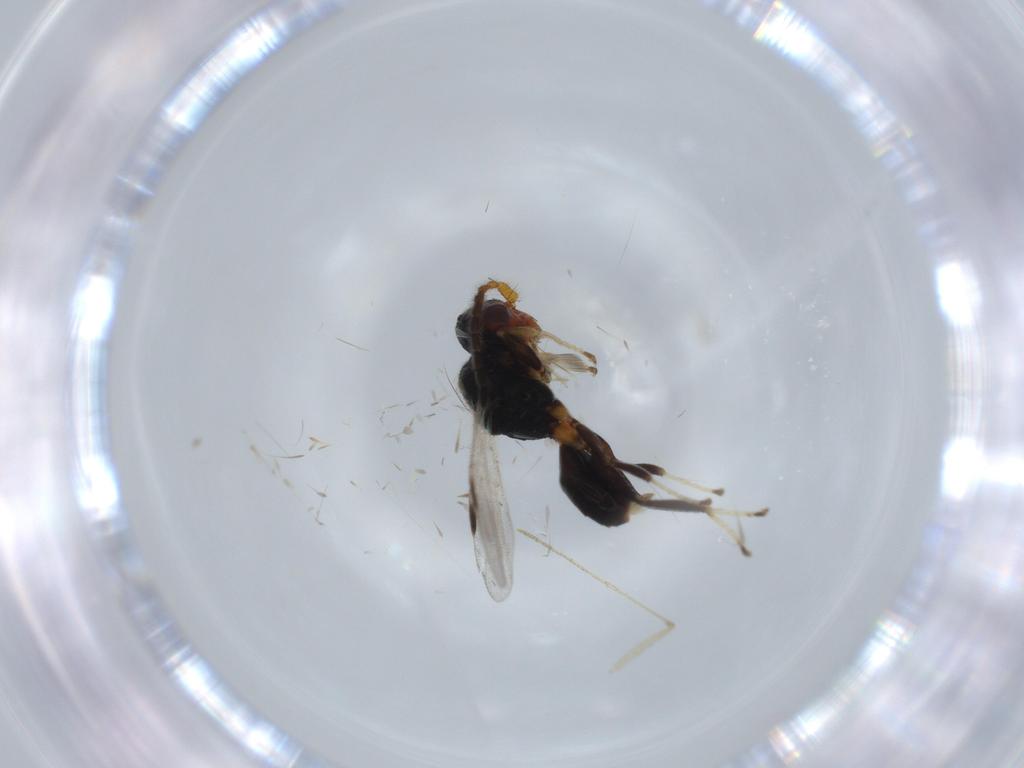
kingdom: Animalia
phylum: Arthropoda
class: Insecta
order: Hymenoptera
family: Dryinidae
